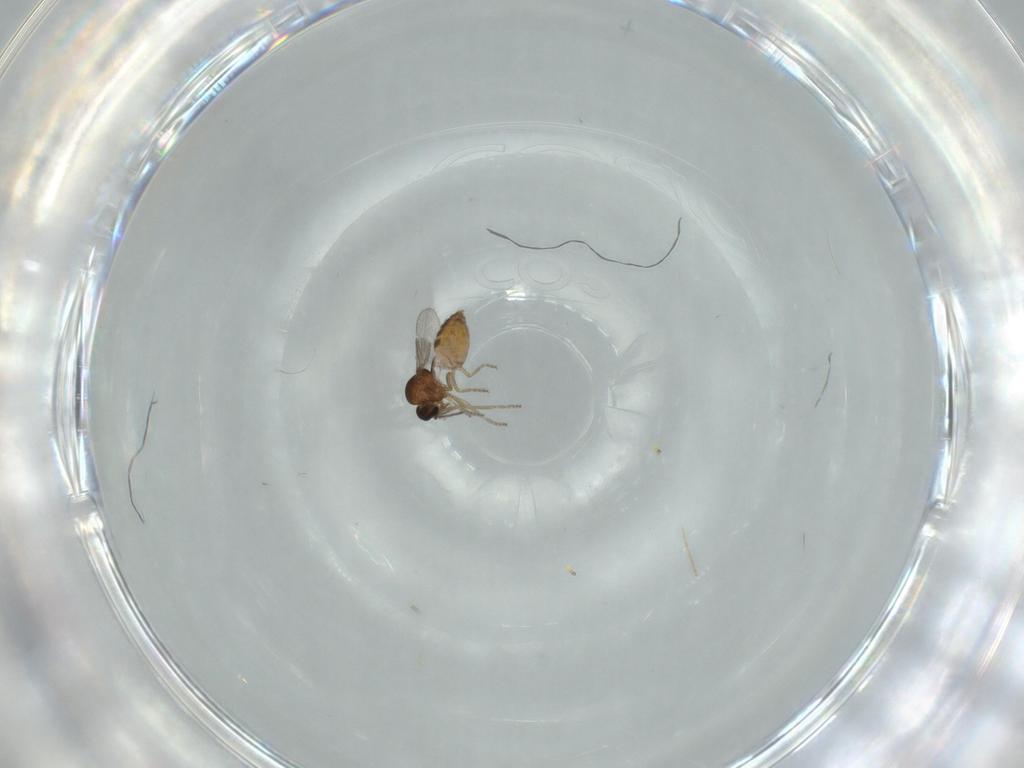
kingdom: Animalia
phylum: Arthropoda
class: Insecta
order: Diptera
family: Ceratopogonidae
